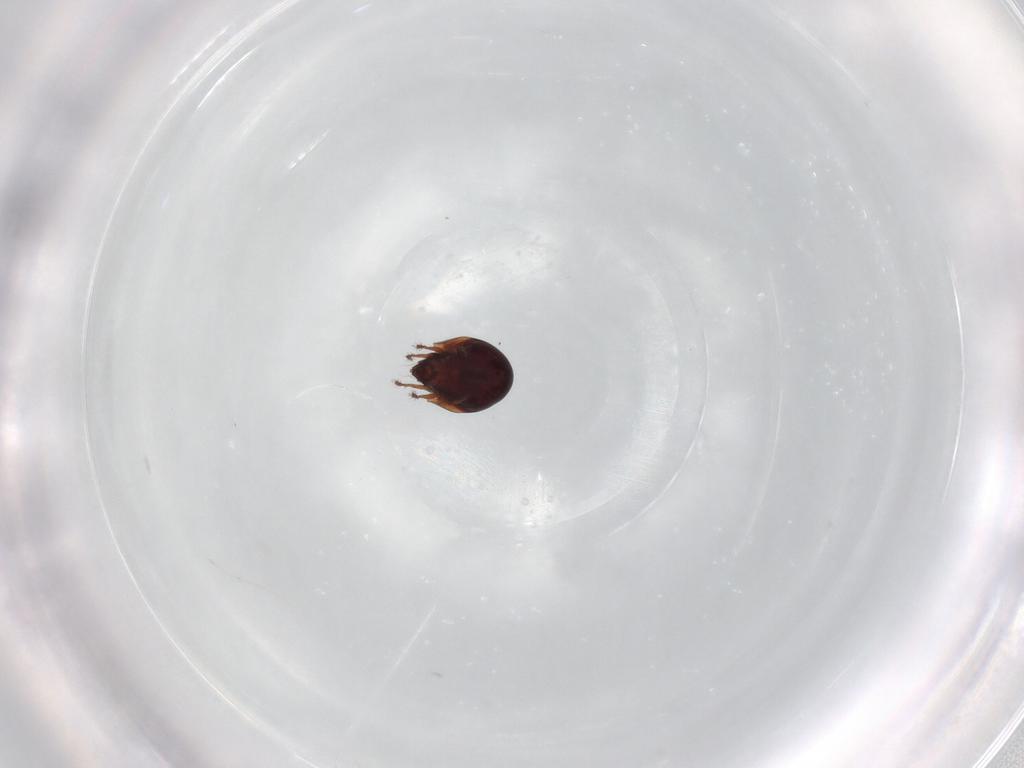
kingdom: Animalia
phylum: Arthropoda
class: Arachnida
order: Sarcoptiformes
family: Humerobatidae
